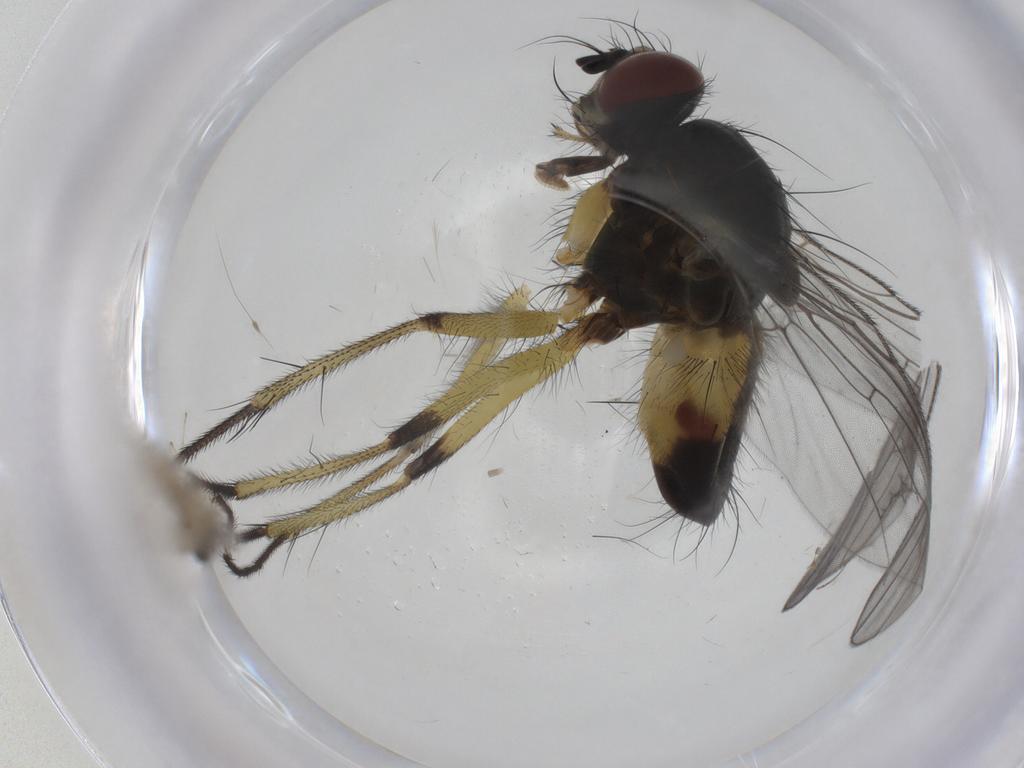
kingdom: Animalia
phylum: Arthropoda
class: Insecta
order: Diptera
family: Muscidae
